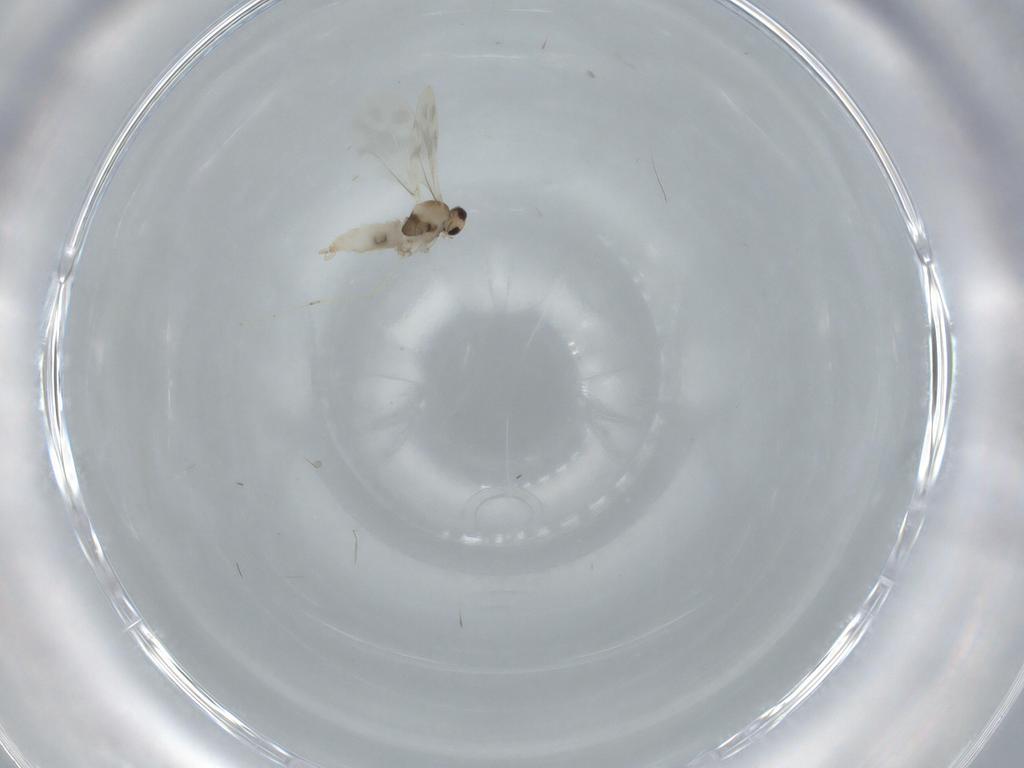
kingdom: Animalia
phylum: Arthropoda
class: Insecta
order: Diptera
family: Cecidomyiidae
